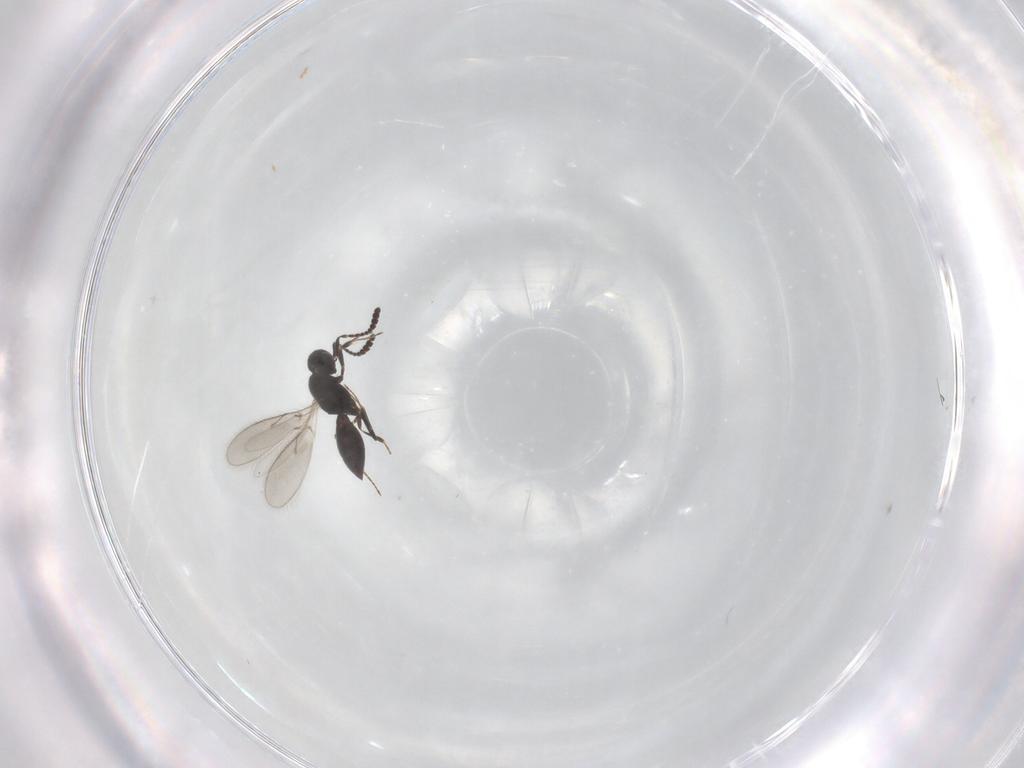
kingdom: Animalia
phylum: Arthropoda
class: Insecta
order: Hymenoptera
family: Scelionidae
